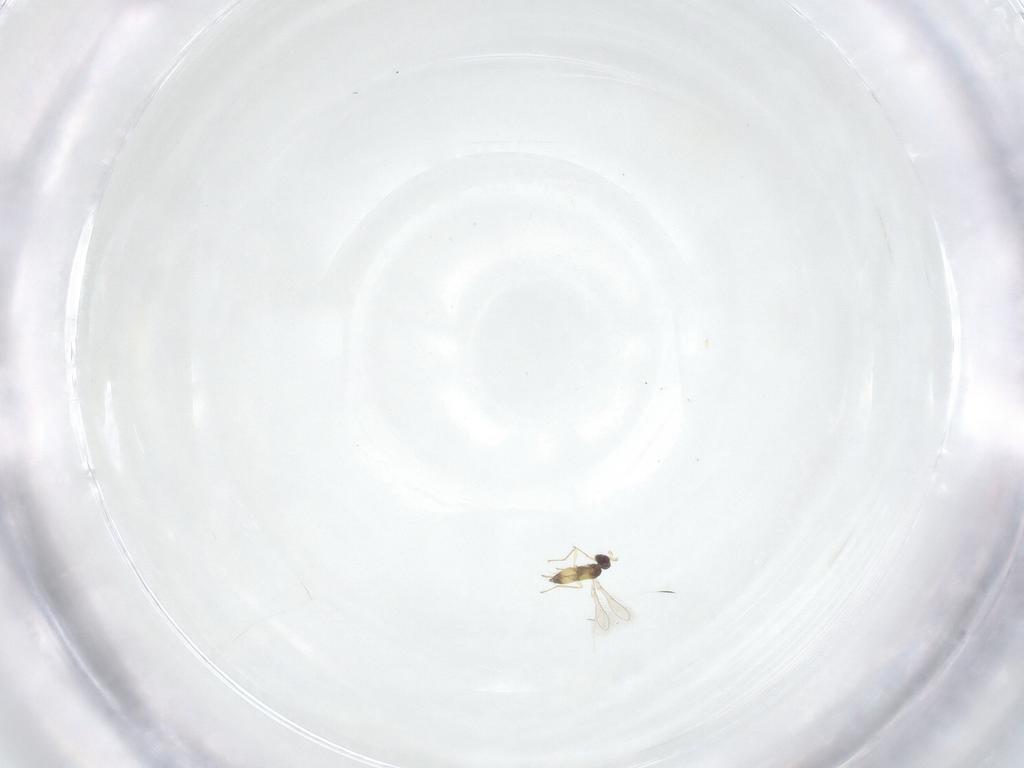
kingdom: Animalia
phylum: Arthropoda
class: Insecta
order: Hymenoptera
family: Mymaridae
